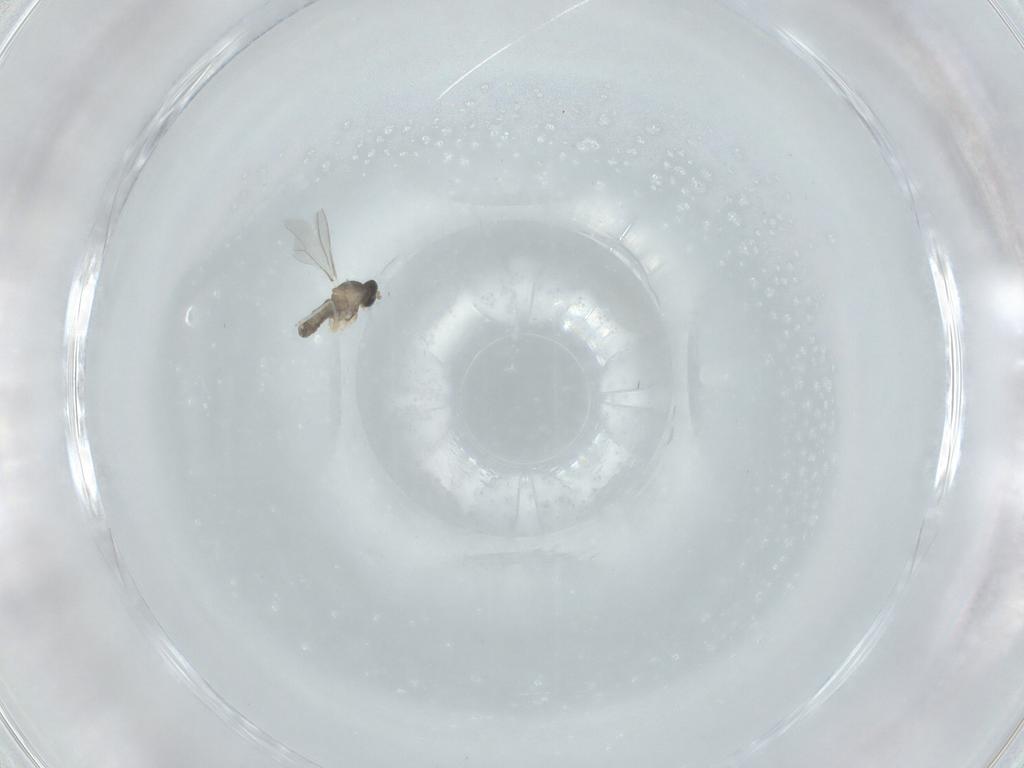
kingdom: Animalia
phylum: Arthropoda
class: Insecta
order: Diptera
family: Cecidomyiidae
